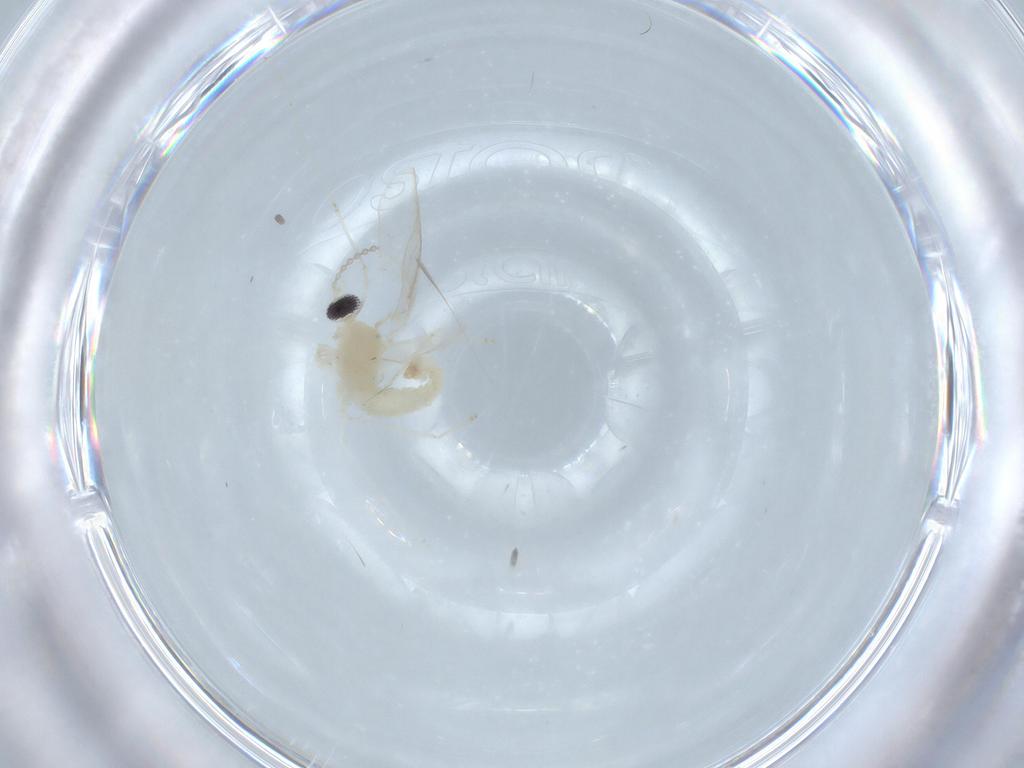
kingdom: Animalia
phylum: Arthropoda
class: Insecta
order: Diptera
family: Cecidomyiidae
